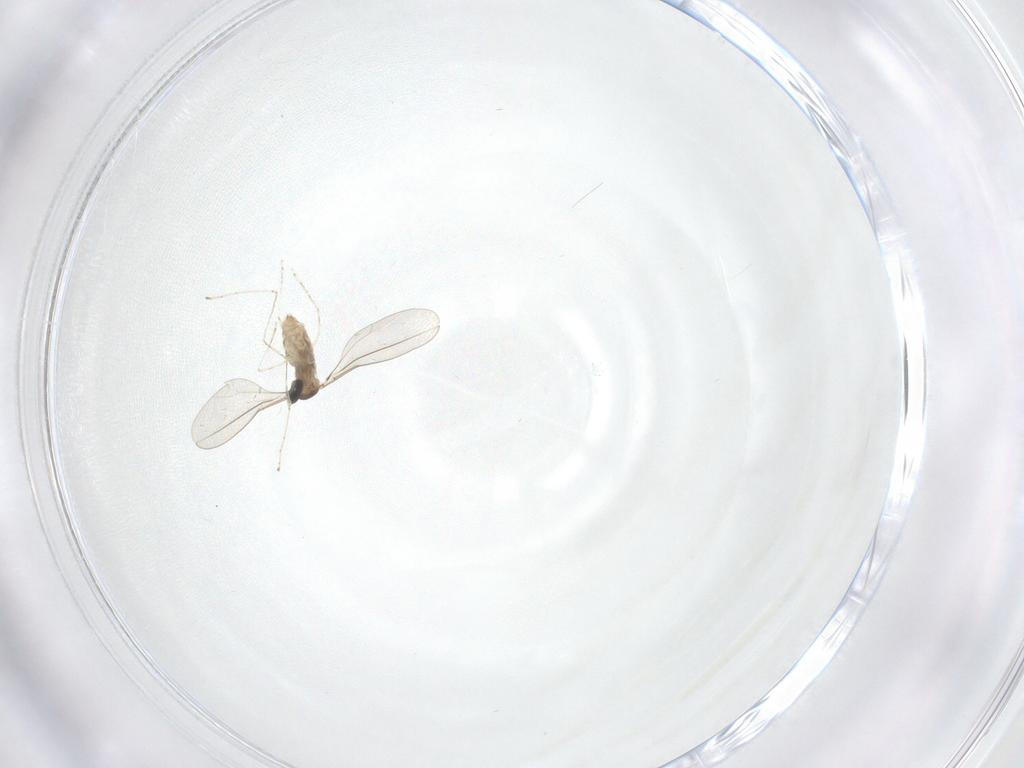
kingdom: Animalia
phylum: Arthropoda
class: Insecta
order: Diptera
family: Cecidomyiidae
